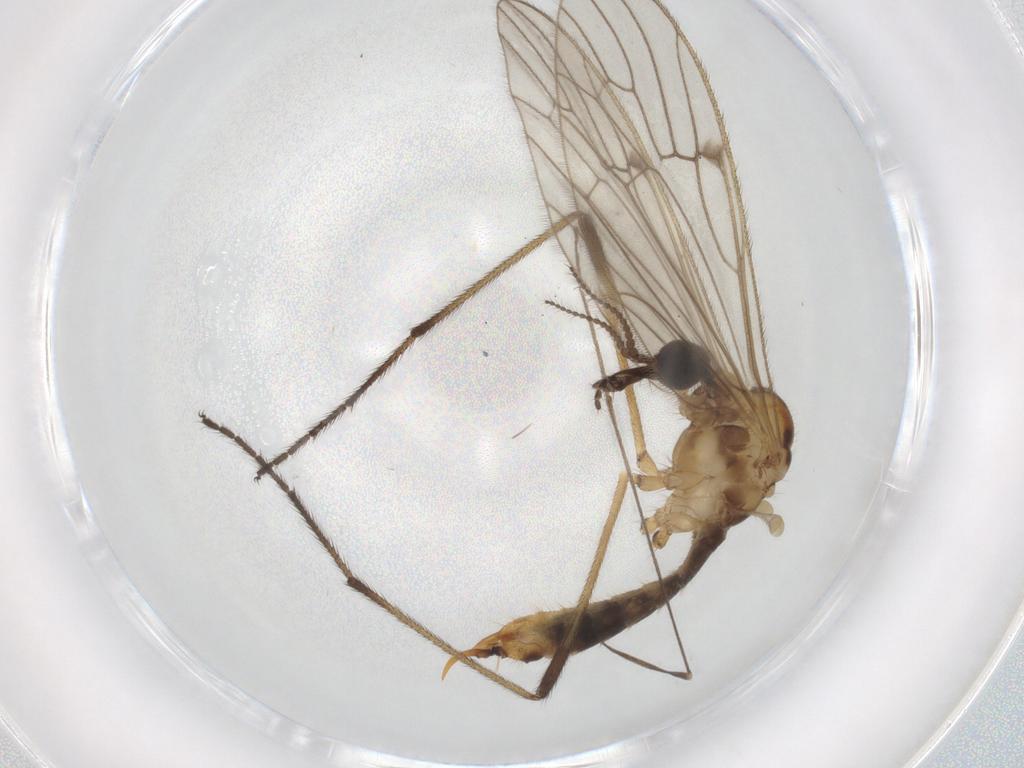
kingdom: Animalia
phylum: Arthropoda
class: Insecta
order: Diptera
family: Limoniidae
